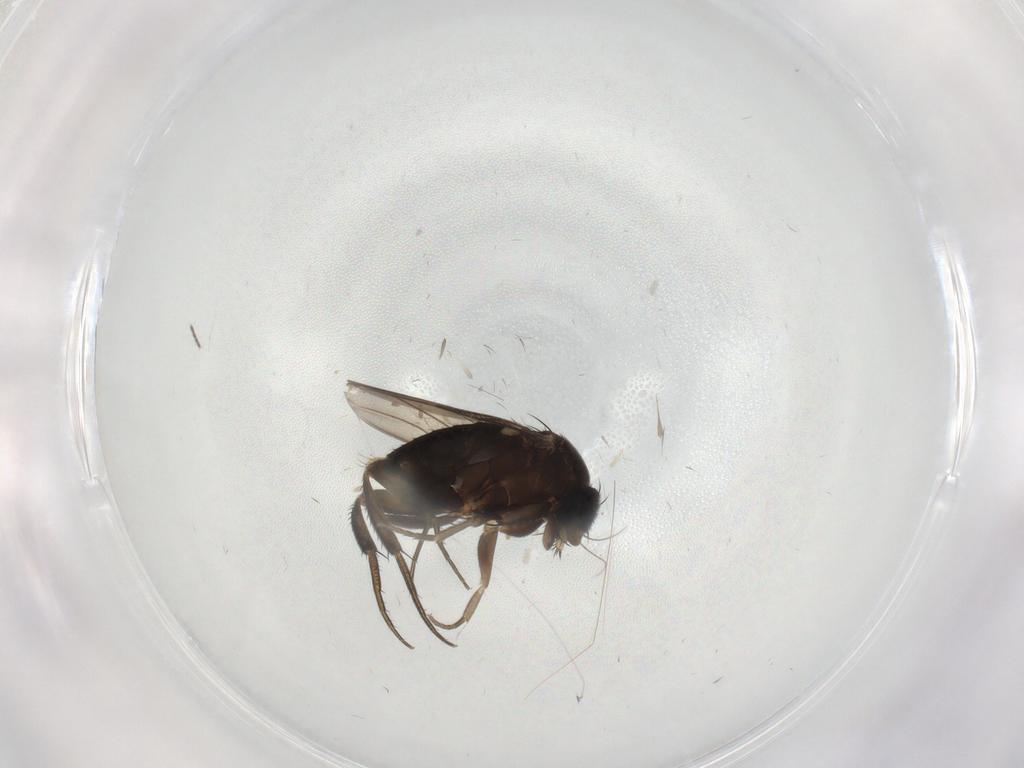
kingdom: Animalia
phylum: Arthropoda
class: Insecta
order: Diptera
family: Phoridae
